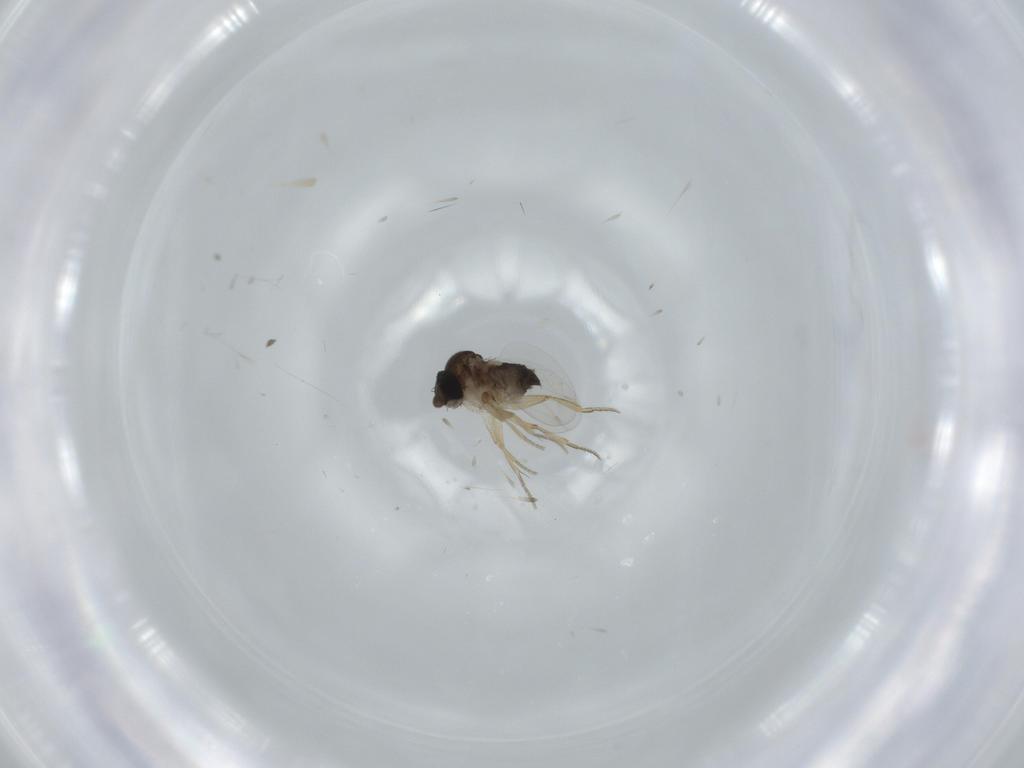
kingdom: Animalia
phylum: Arthropoda
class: Insecta
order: Diptera
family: Phoridae
